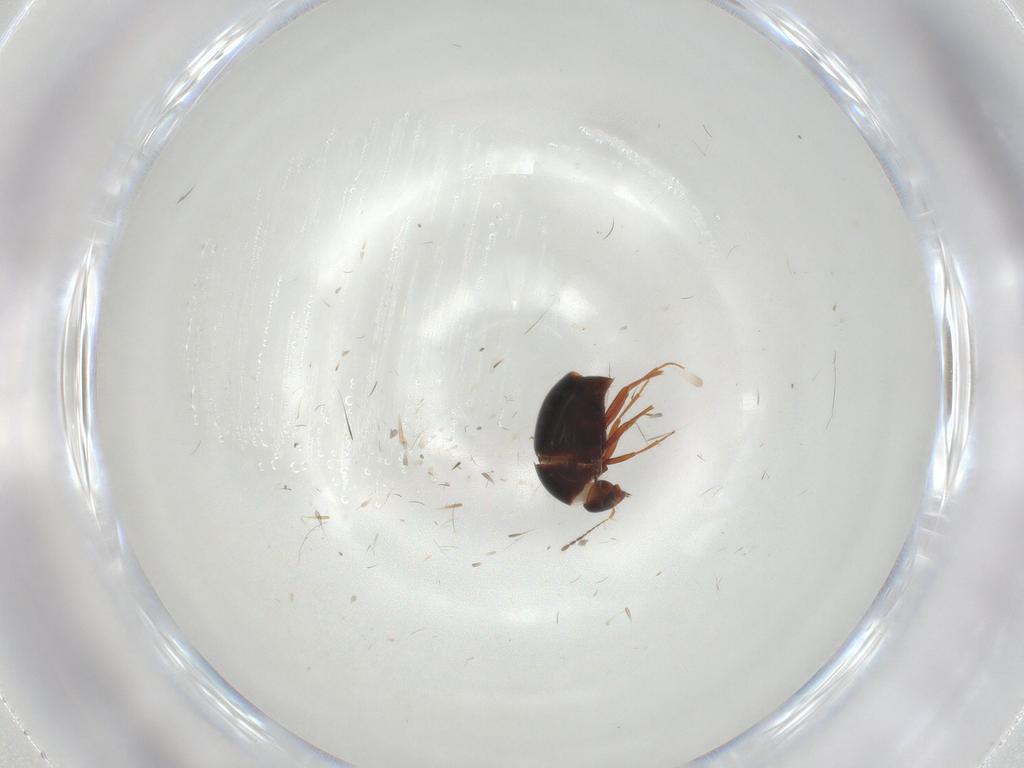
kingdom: Animalia
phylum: Arthropoda
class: Insecta
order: Coleoptera
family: Staphylinidae
